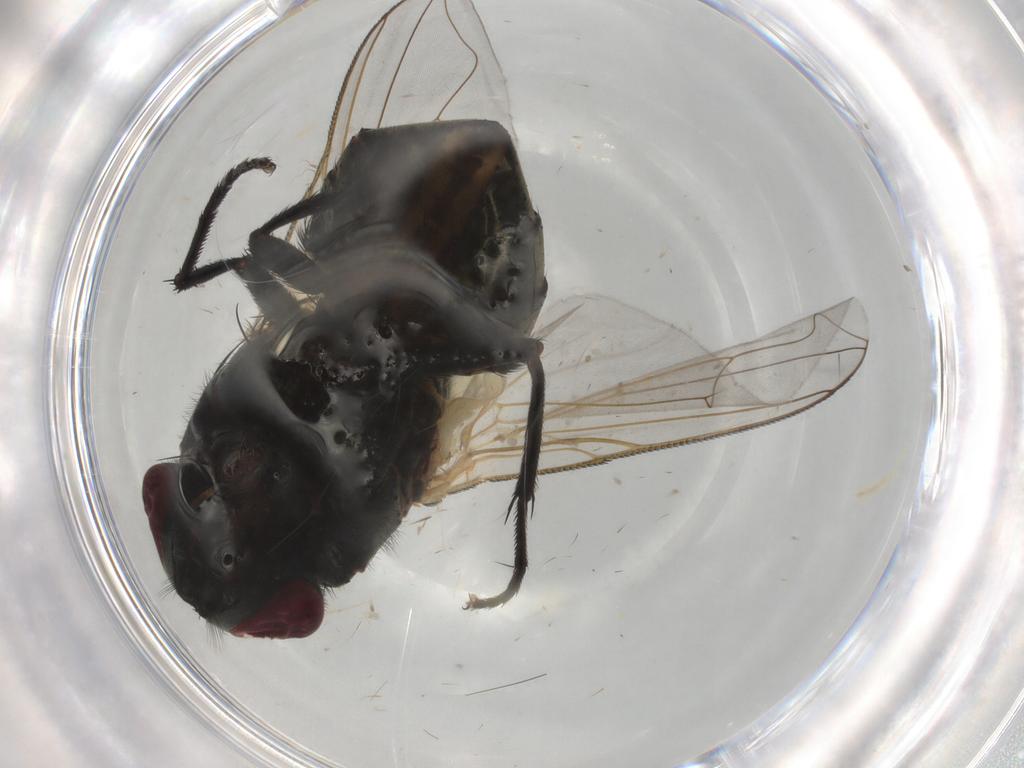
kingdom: Animalia
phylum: Arthropoda
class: Insecta
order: Diptera
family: Muscidae
